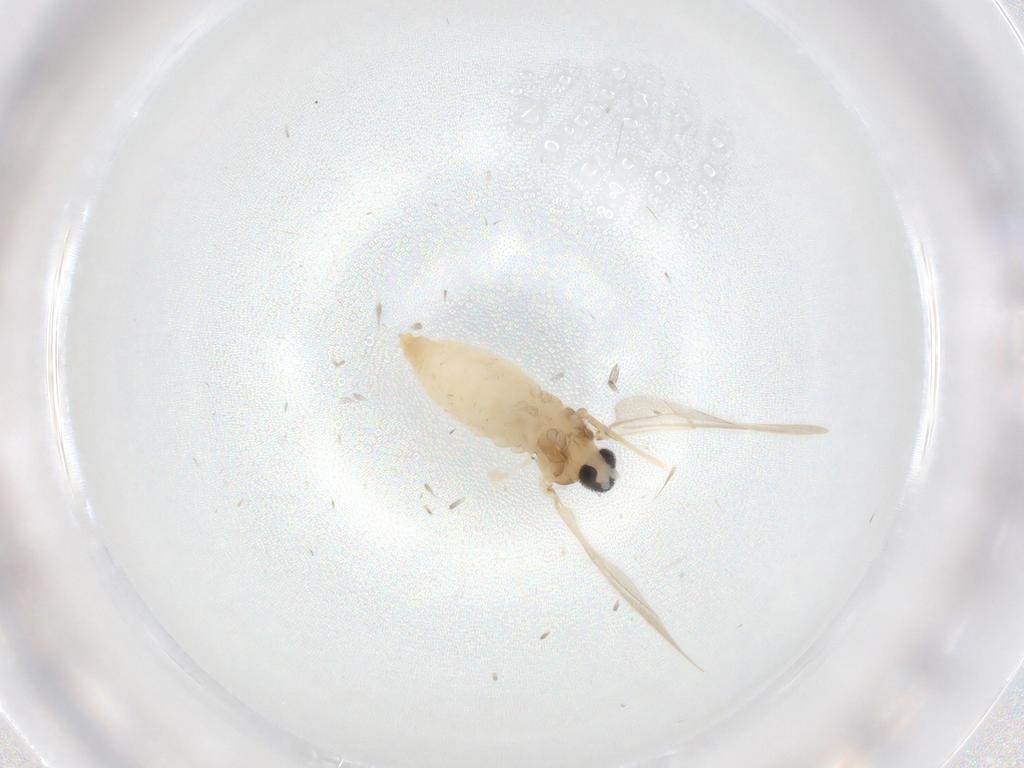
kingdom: Animalia
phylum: Arthropoda
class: Insecta
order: Diptera
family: Cecidomyiidae
